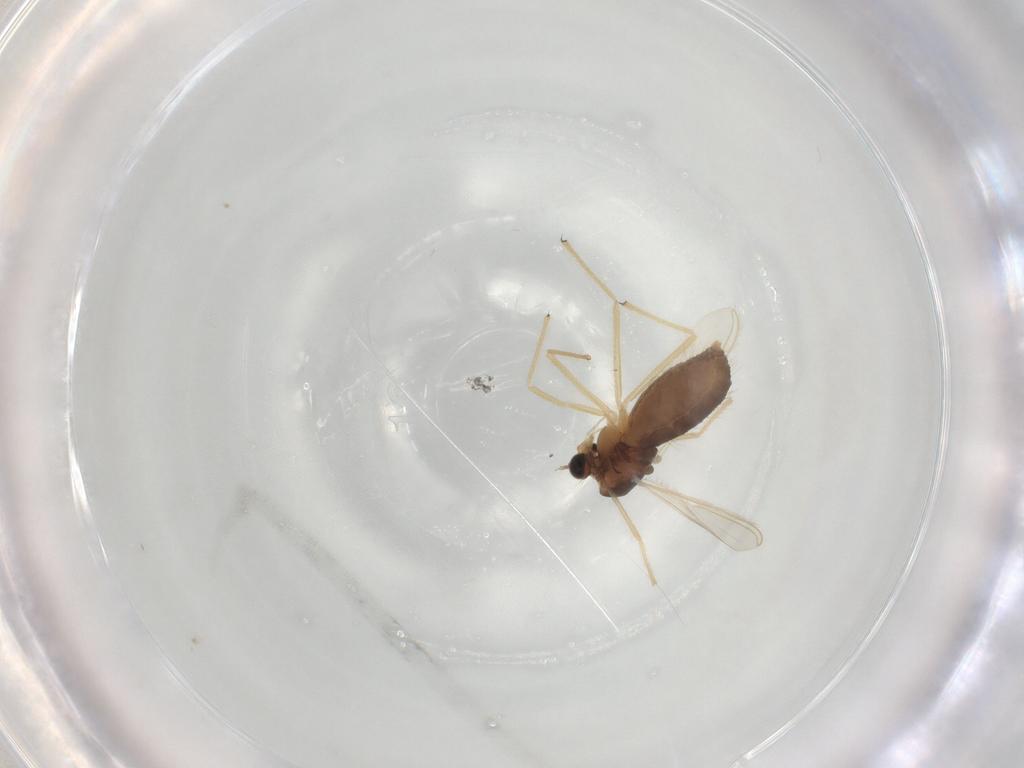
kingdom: Animalia
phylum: Arthropoda
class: Insecta
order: Diptera
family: Chironomidae
